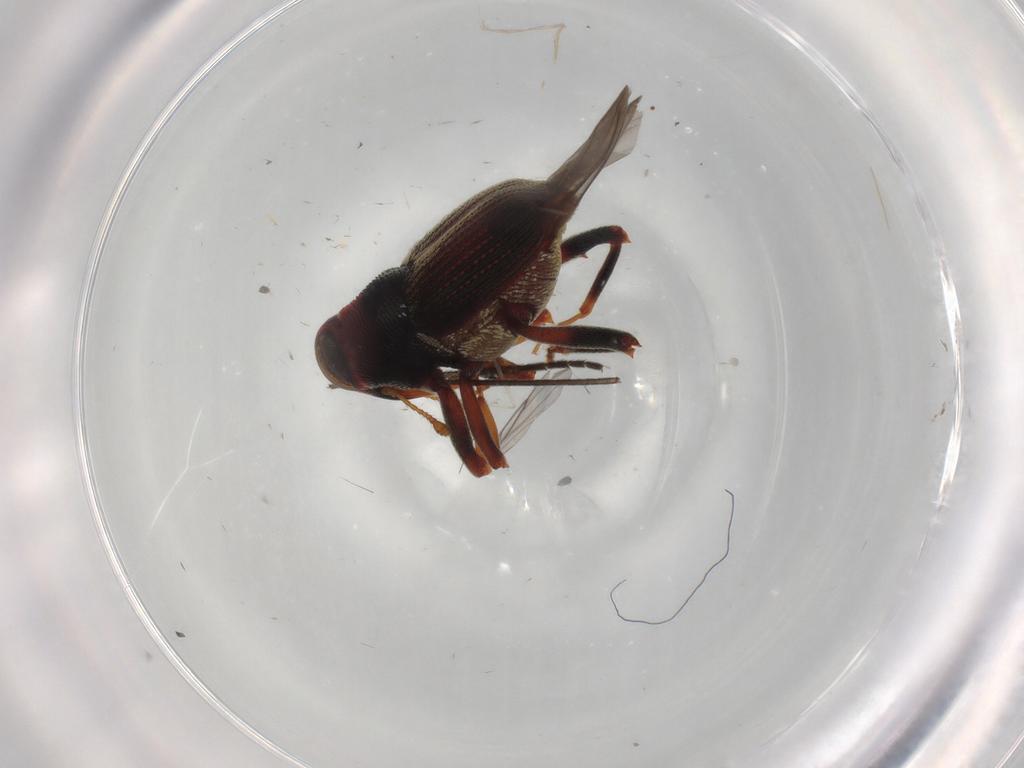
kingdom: Animalia
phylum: Arthropoda
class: Insecta
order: Coleoptera
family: Curculionidae
